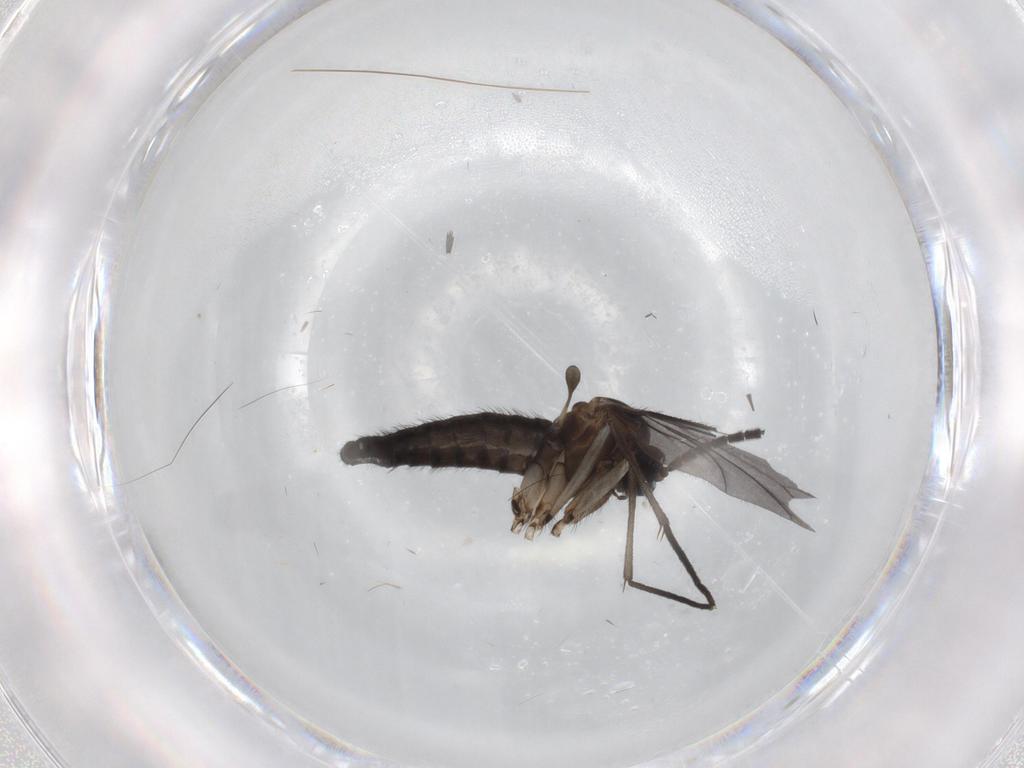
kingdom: Animalia
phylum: Arthropoda
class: Insecta
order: Diptera
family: Sciaridae
